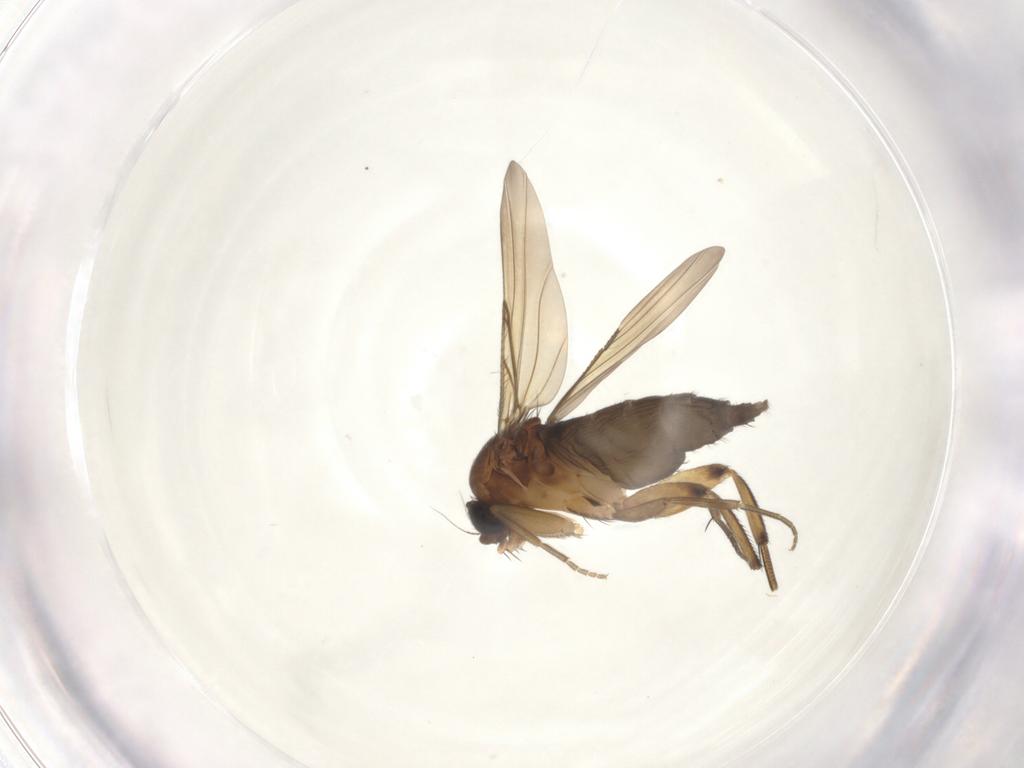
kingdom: Animalia
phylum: Arthropoda
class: Insecta
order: Diptera
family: Phoridae
